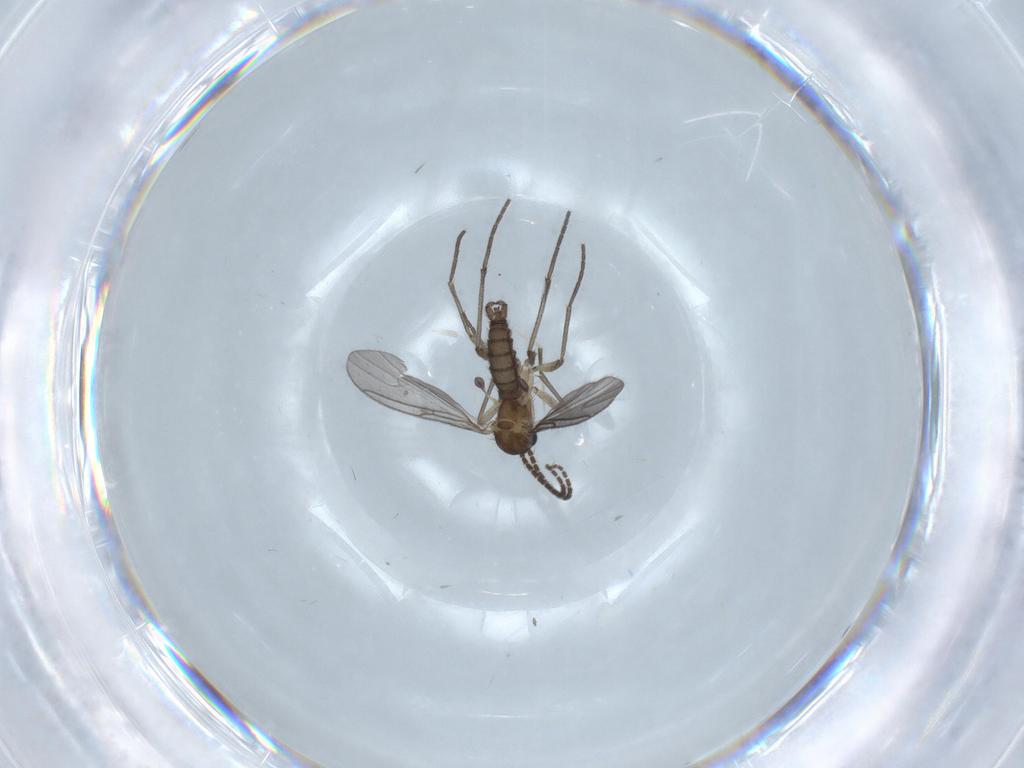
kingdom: Animalia
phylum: Arthropoda
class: Insecta
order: Diptera
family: Sciaridae
